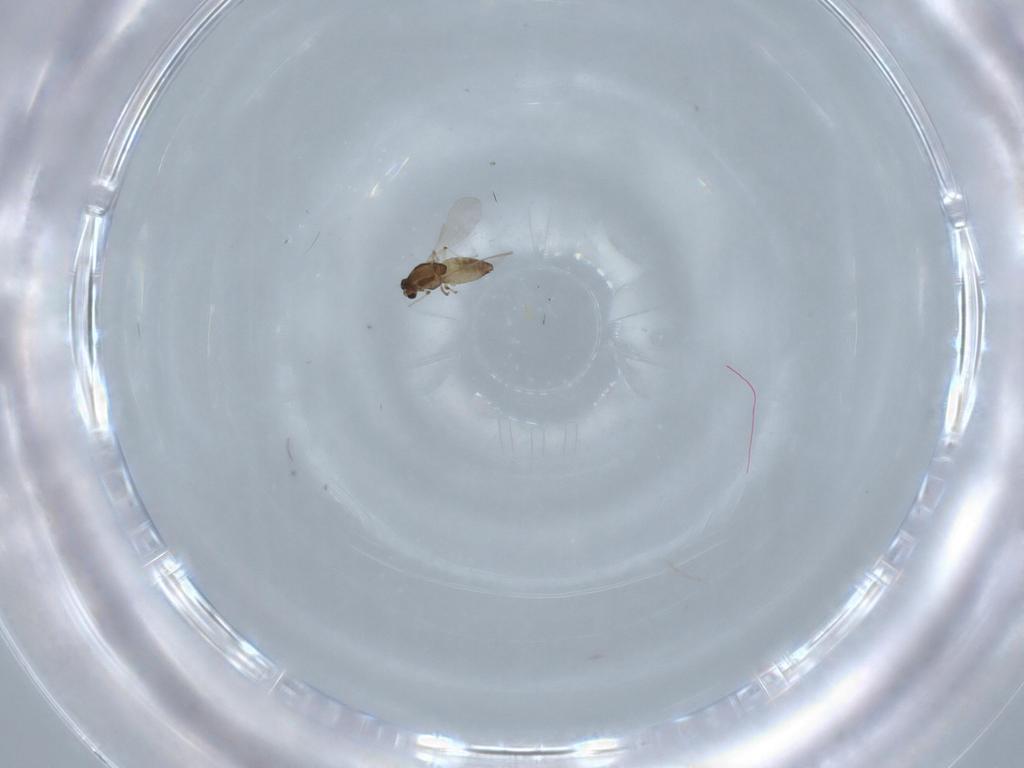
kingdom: Animalia
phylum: Arthropoda
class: Insecta
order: Diptera
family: Chironomidae
